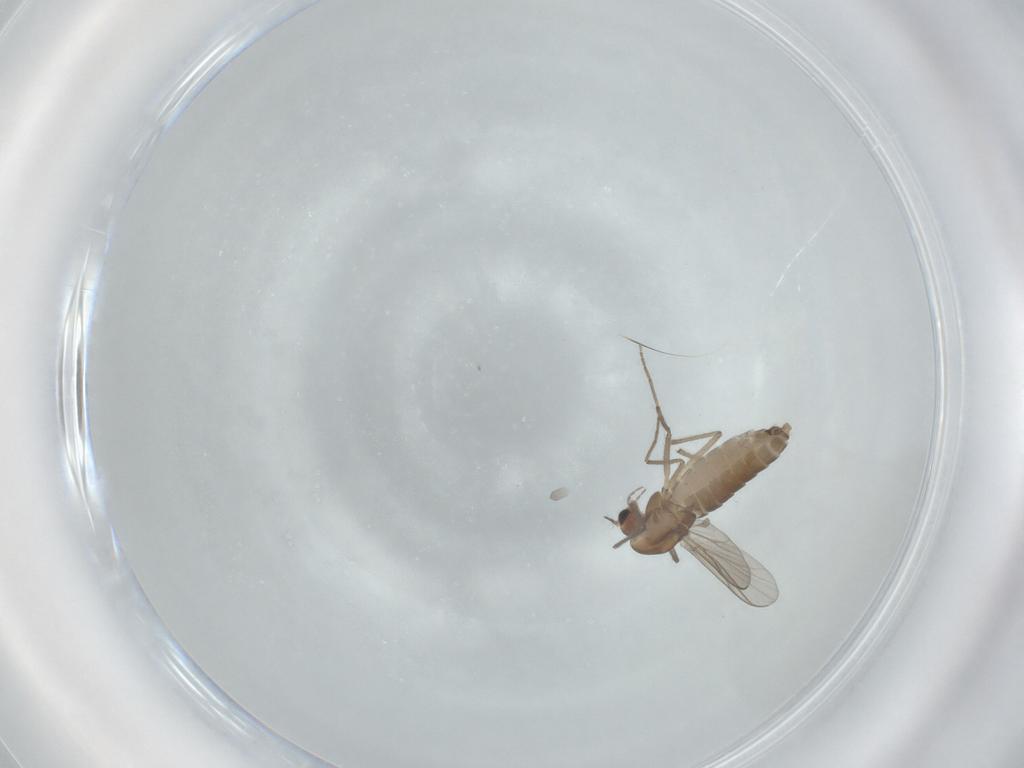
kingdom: Animalia
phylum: Arthropoda
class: Insecta
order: Diptera
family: Chironomidae
